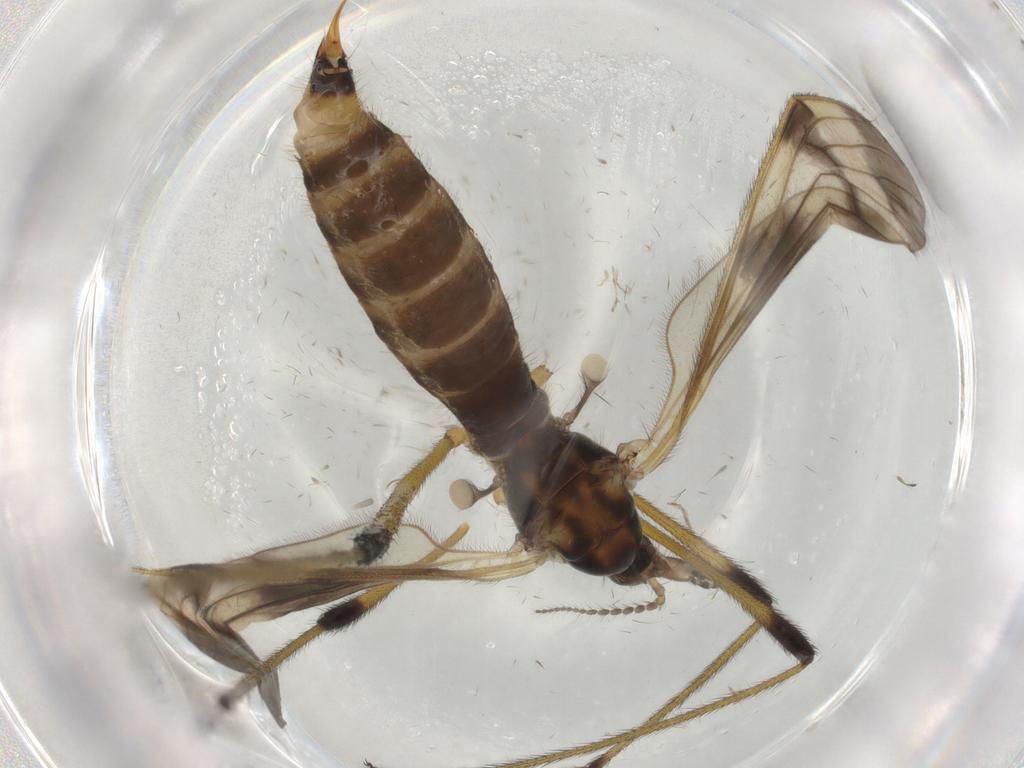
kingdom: Animalia
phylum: Arthropoda
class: Insecta
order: Diptera
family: Limoniidae
